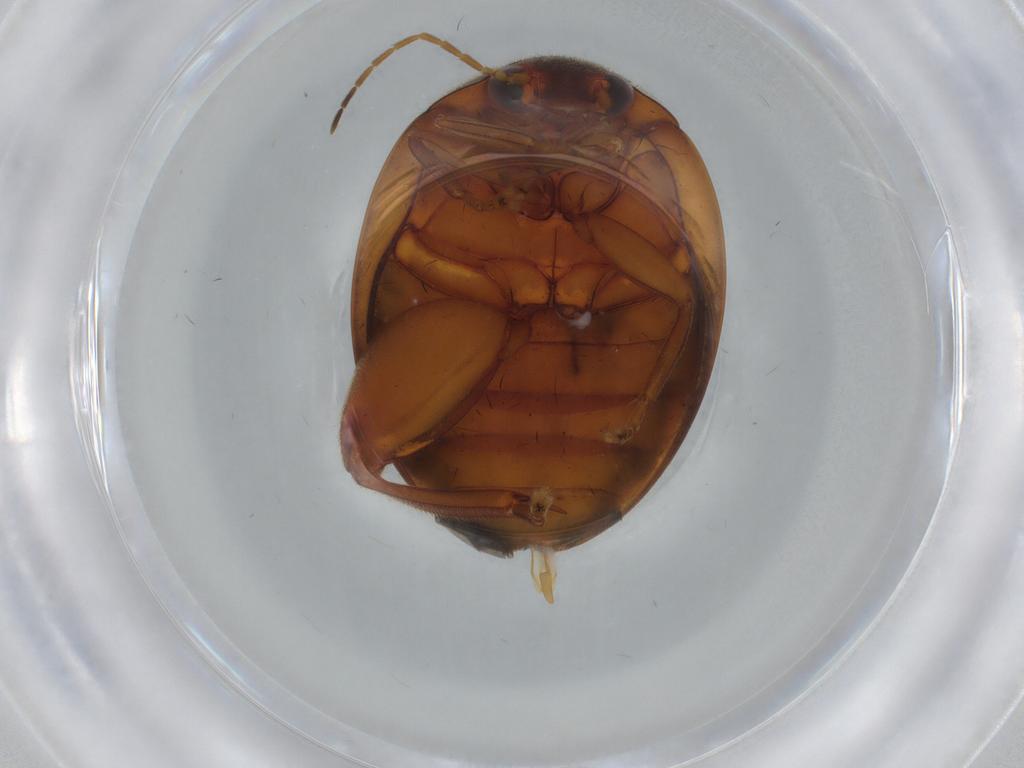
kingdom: Animalia
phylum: Arthropoda
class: Insecta
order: Coleoptera
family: Scirtidae
